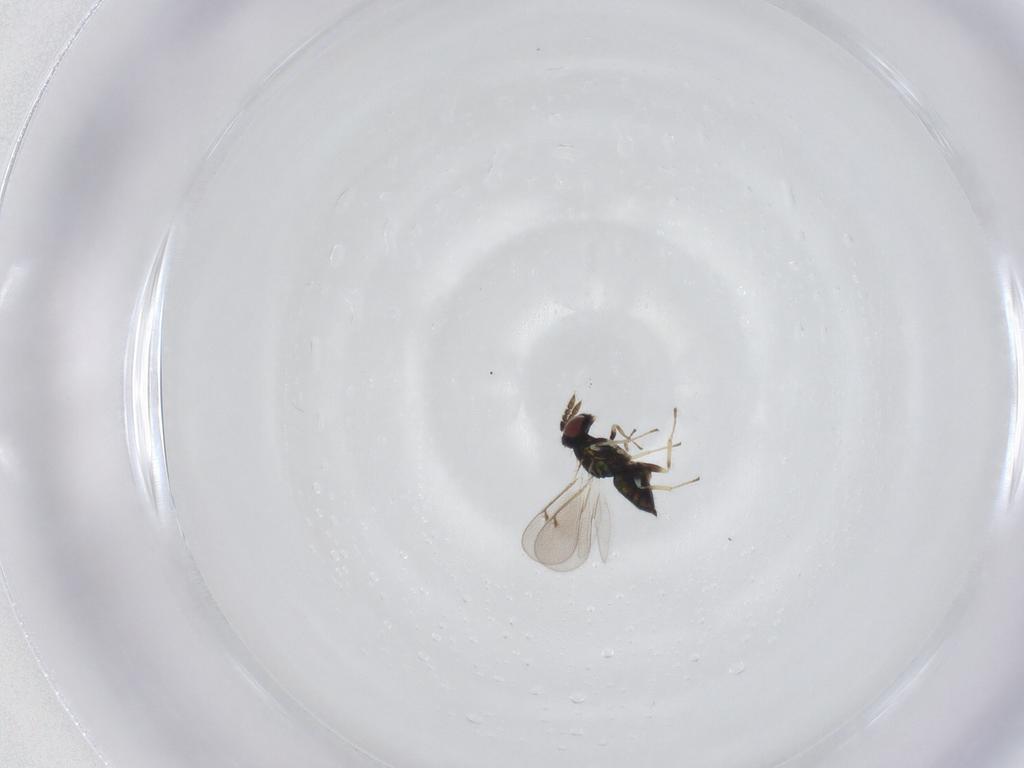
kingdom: Animalia
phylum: Arthropoda
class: Insecta
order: Hymenoptera
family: Eulophidae
